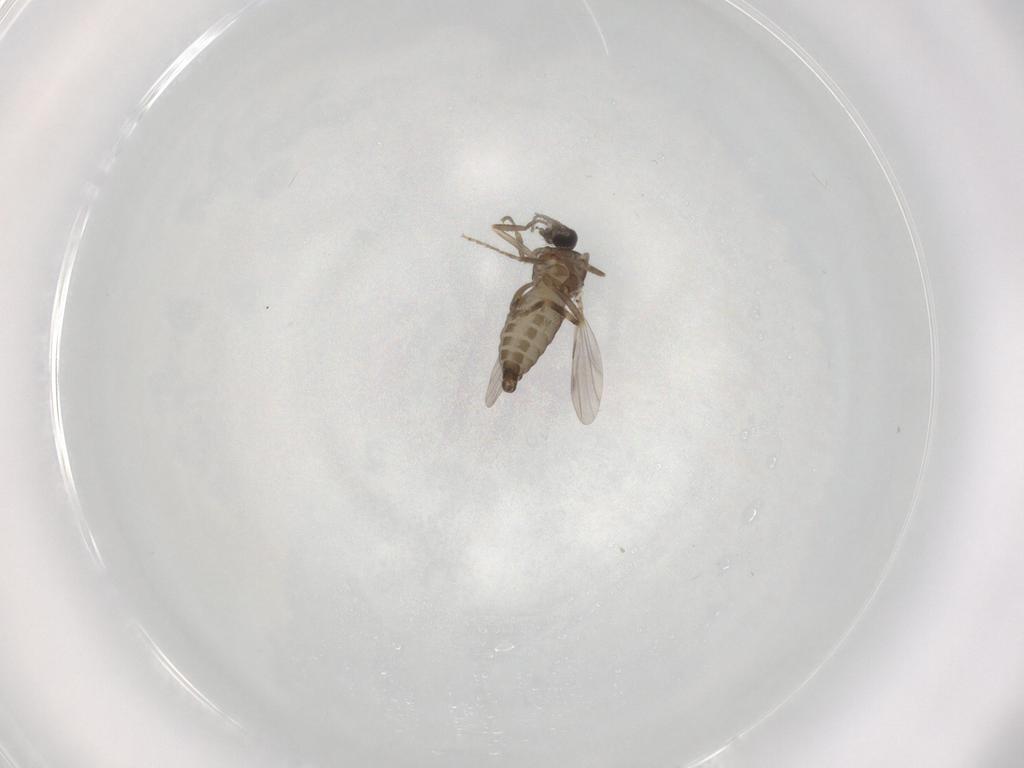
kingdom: Animalia
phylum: Arthropoda
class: Insecta
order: Diptera
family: Ceratopogonidae
